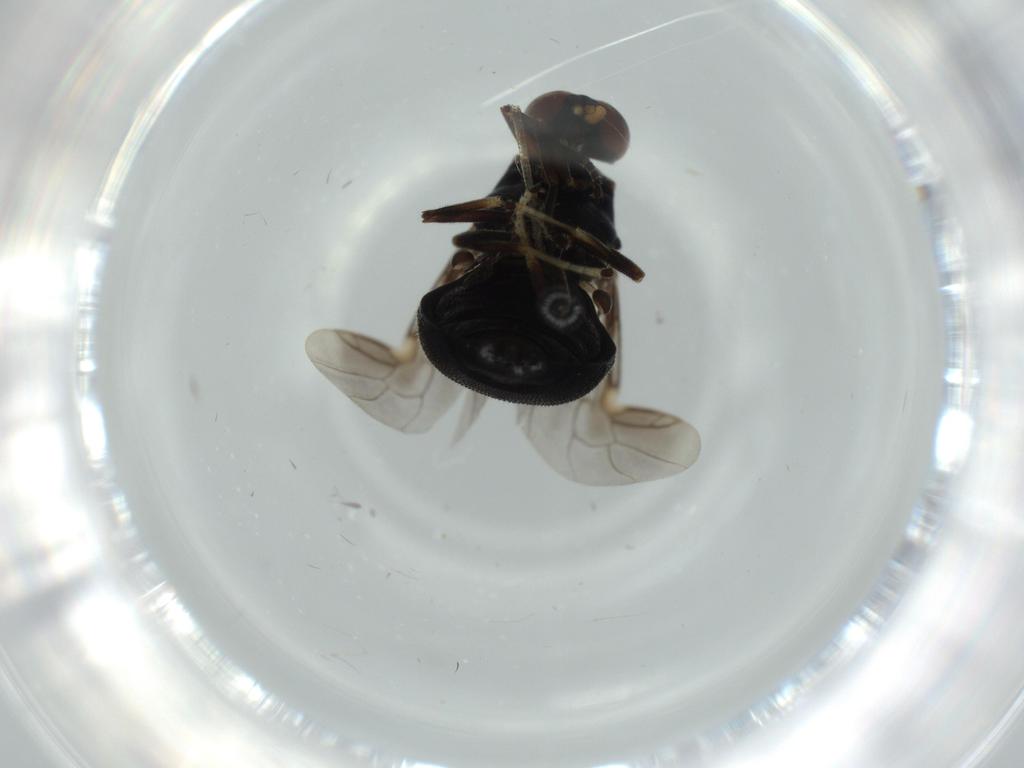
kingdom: Animalia
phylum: Arthropoda
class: Insecta
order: Diptera
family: Stratiomyidae
